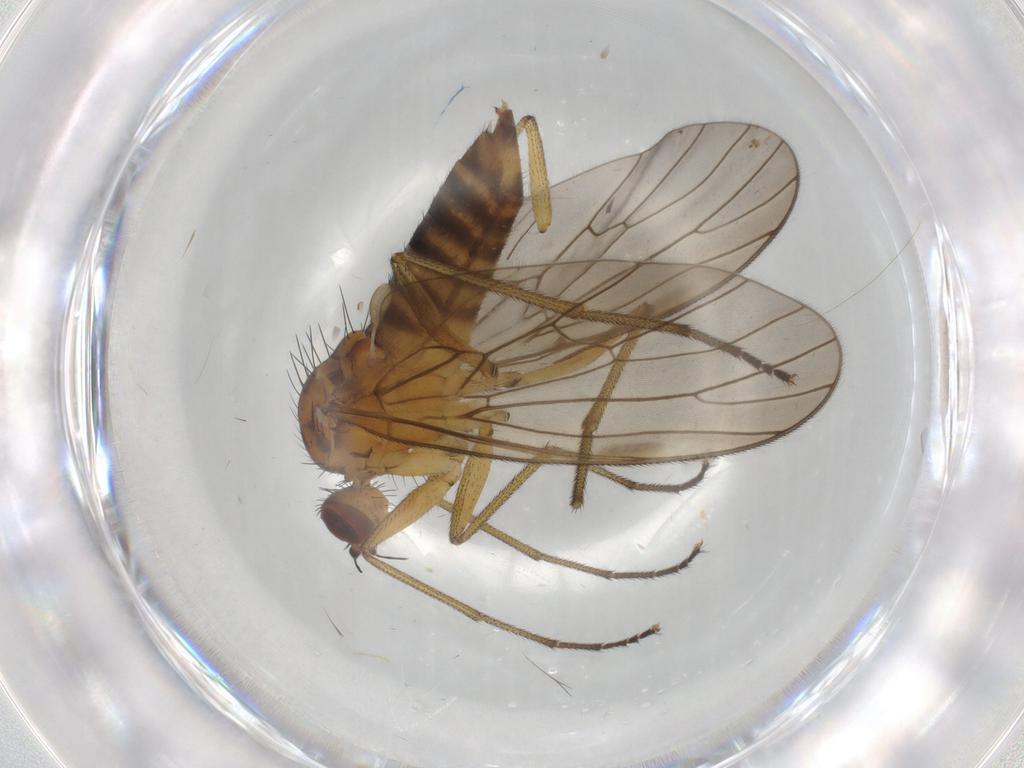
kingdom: Animalia
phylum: Arthropoda
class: Insecta
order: Diptera
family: Brachystomatidae
